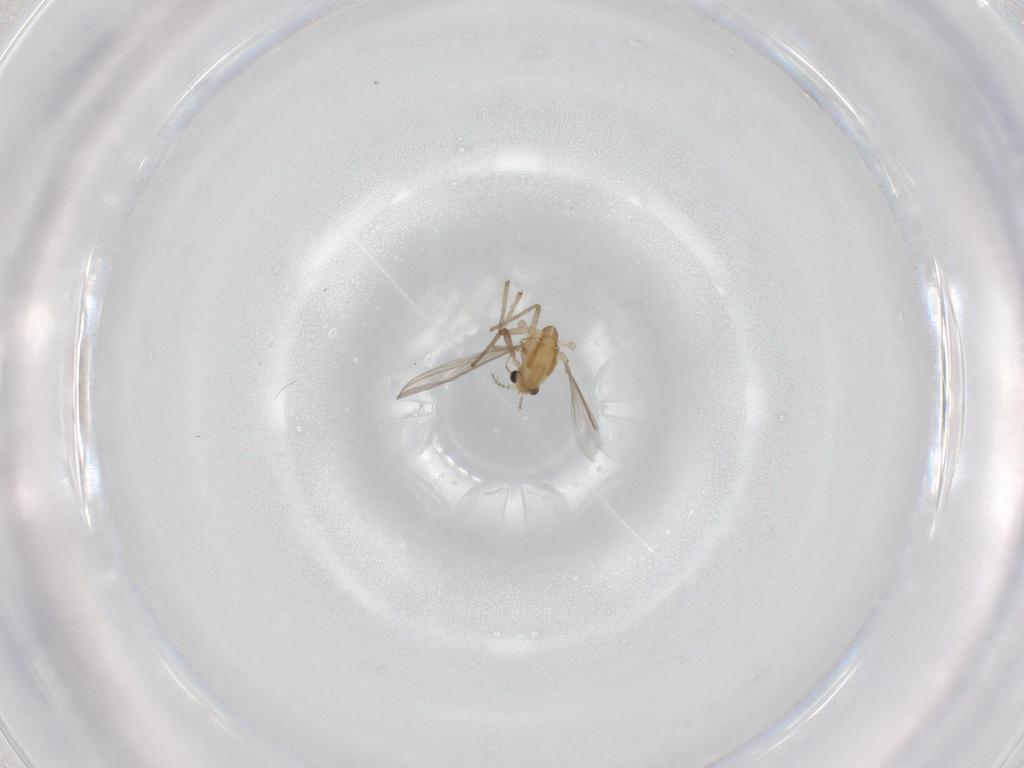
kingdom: Animalia
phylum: Arthropoda
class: Insecta
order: Diptera
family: Chironomidae
